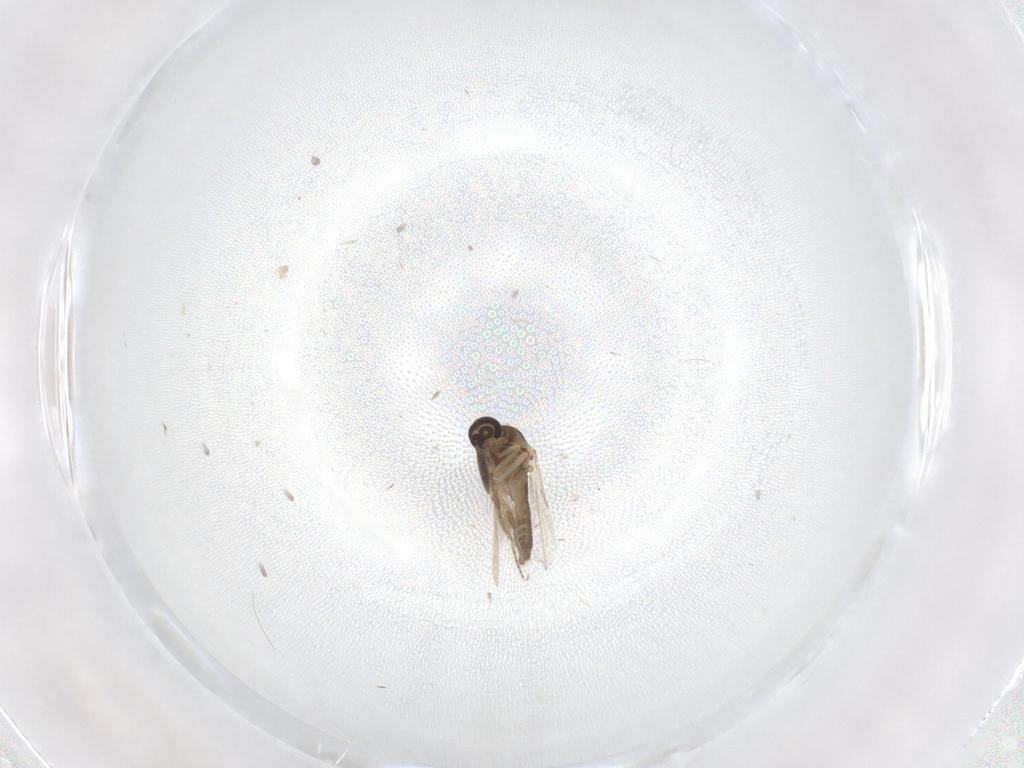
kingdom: Animalia
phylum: Arthropoda
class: Insecta
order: Diptera
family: Ceratopogonidae
